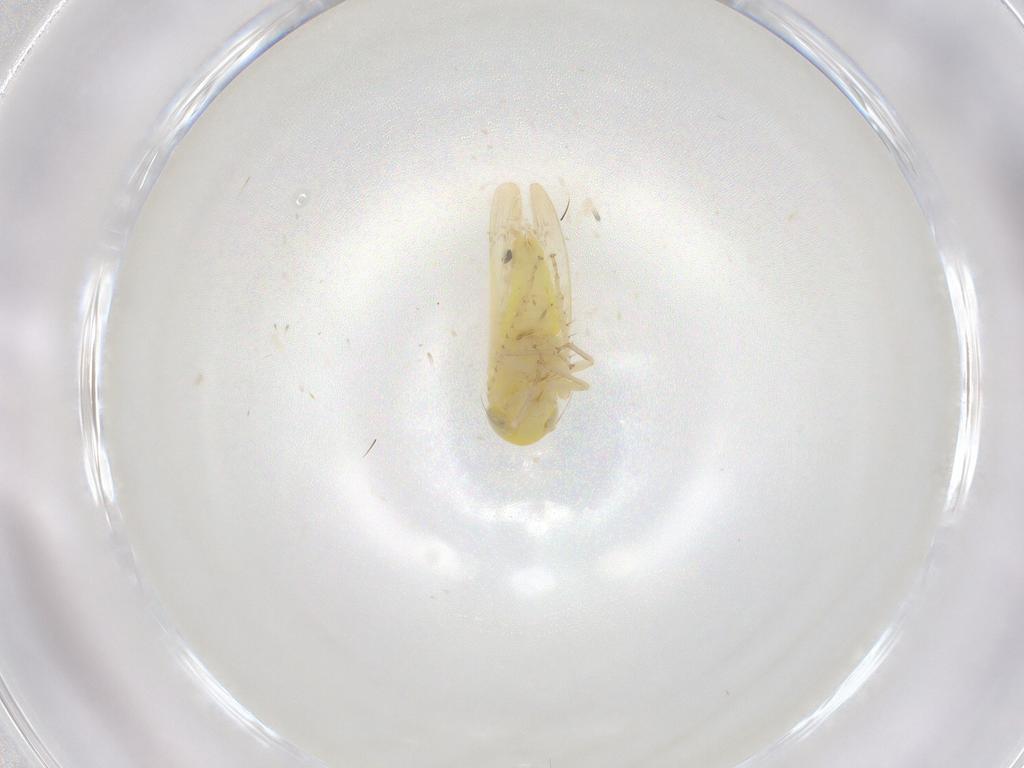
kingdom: Animalia
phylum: Arthropoda
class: Insecta
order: Hemiptera
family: Cicadellidae
